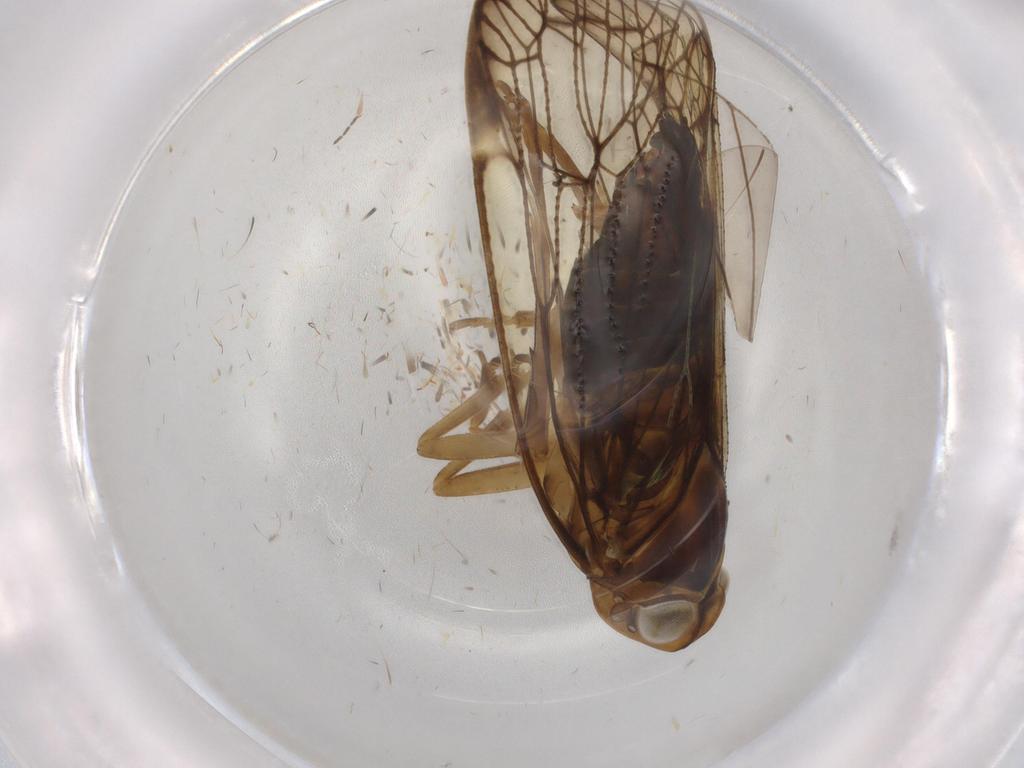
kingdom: Animalia
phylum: Arthropoda
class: Insecta
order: Hemiptera
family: Cixiidae
